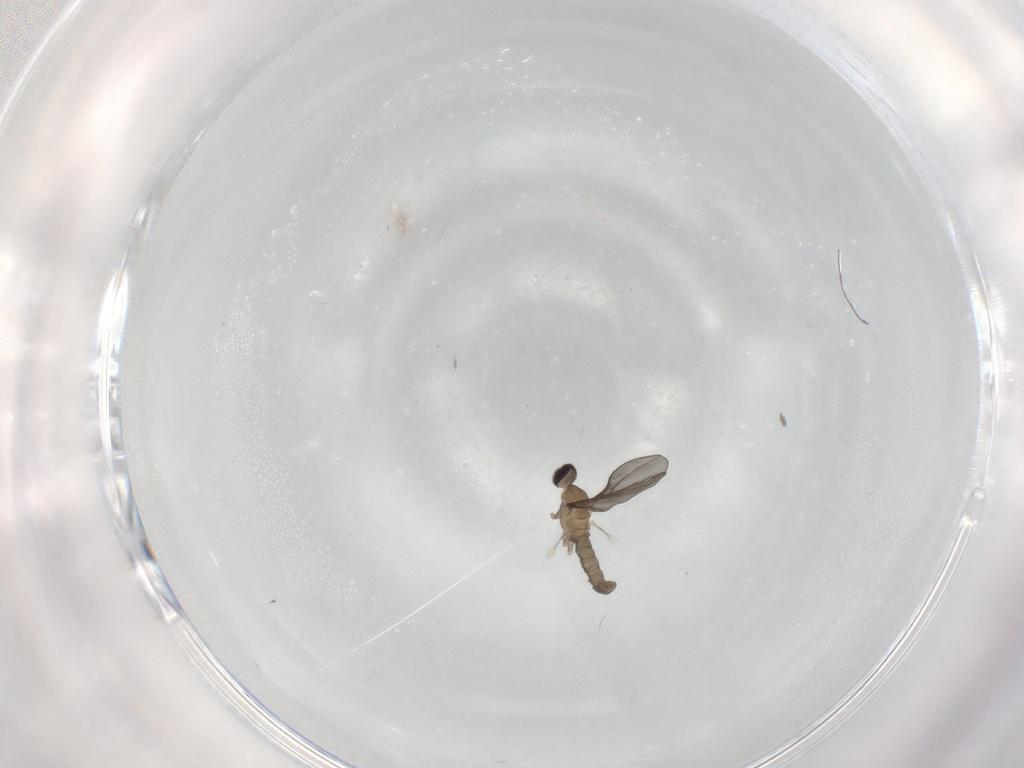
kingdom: Animalia
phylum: Arthropoda
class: Insecta
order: Diptera
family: Cecidomyiidae
